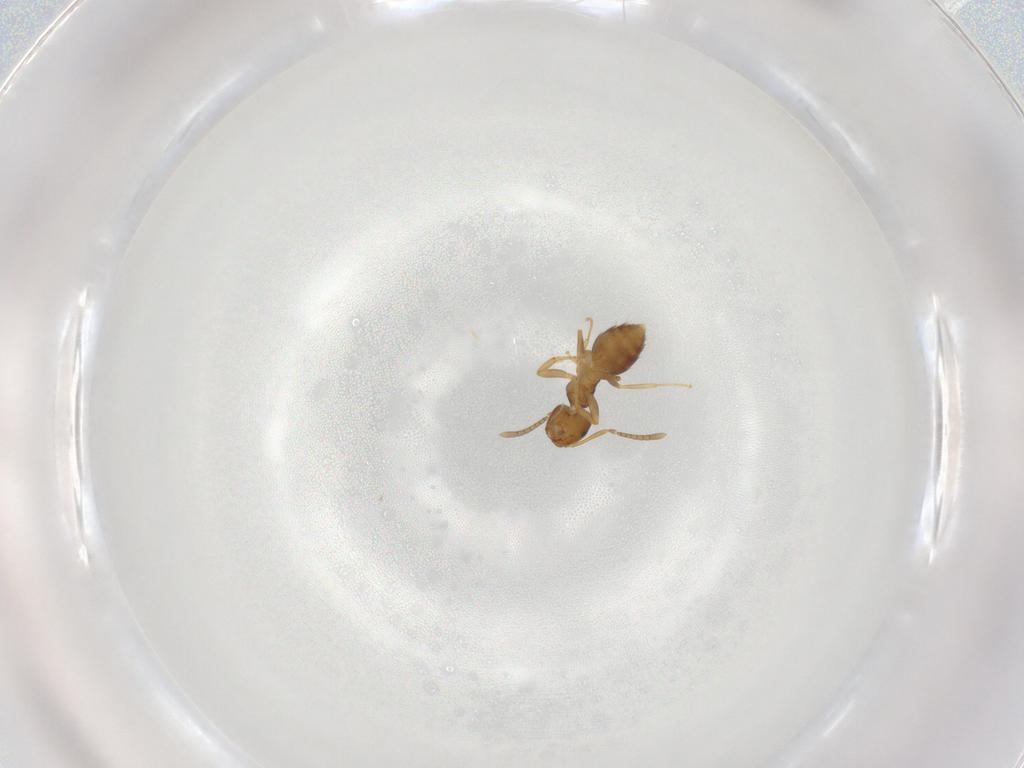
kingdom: Animalia
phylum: Arthropoda
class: Insecta
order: Hymenoptera
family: Formicidae
